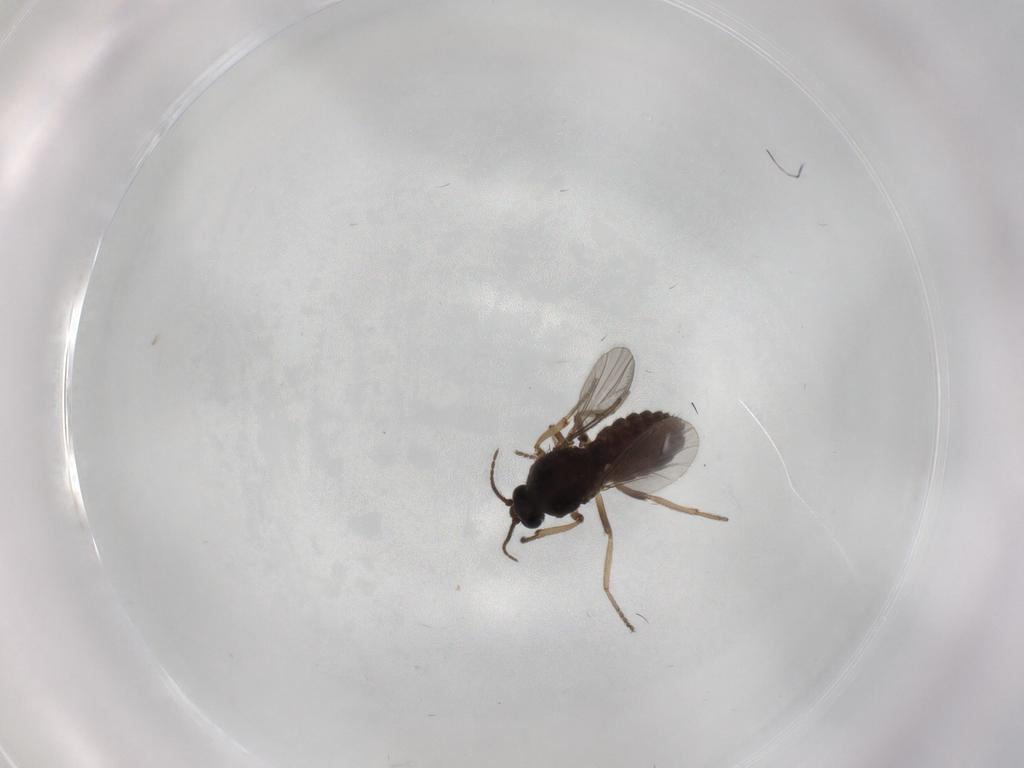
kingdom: Animalia
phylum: Arthropoda
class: Insecta
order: Diptera
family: Ceratopogonidae
